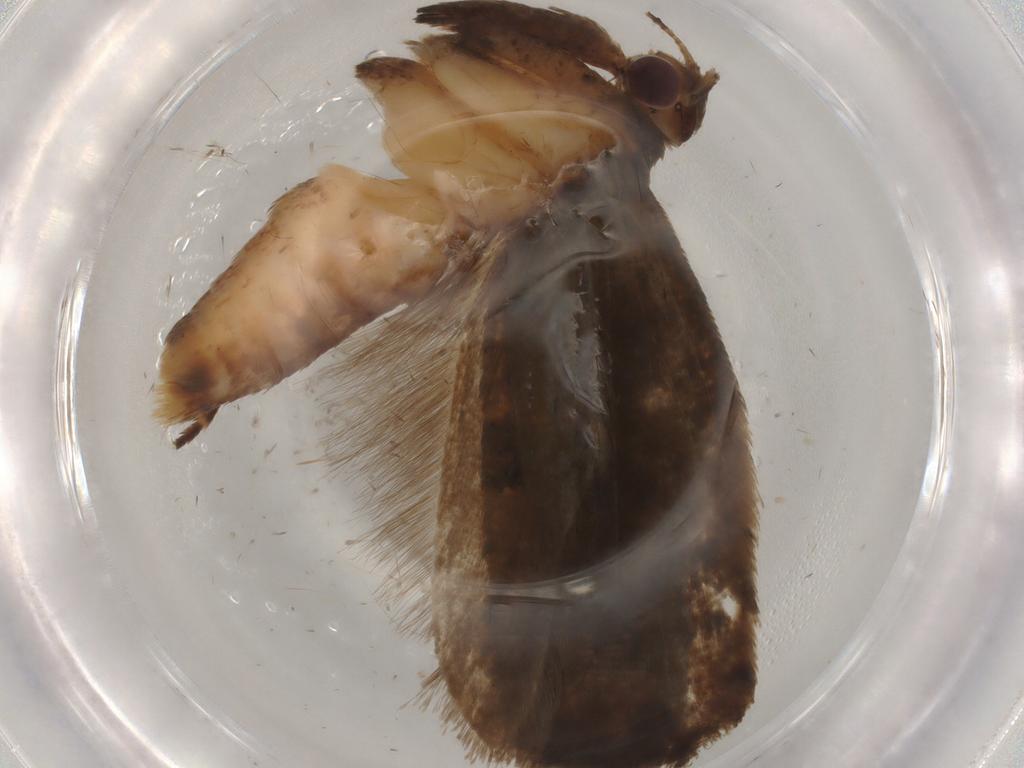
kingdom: Animalia
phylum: Arthropoda
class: Insecta
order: Lepidoptera
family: Gelechiidae
